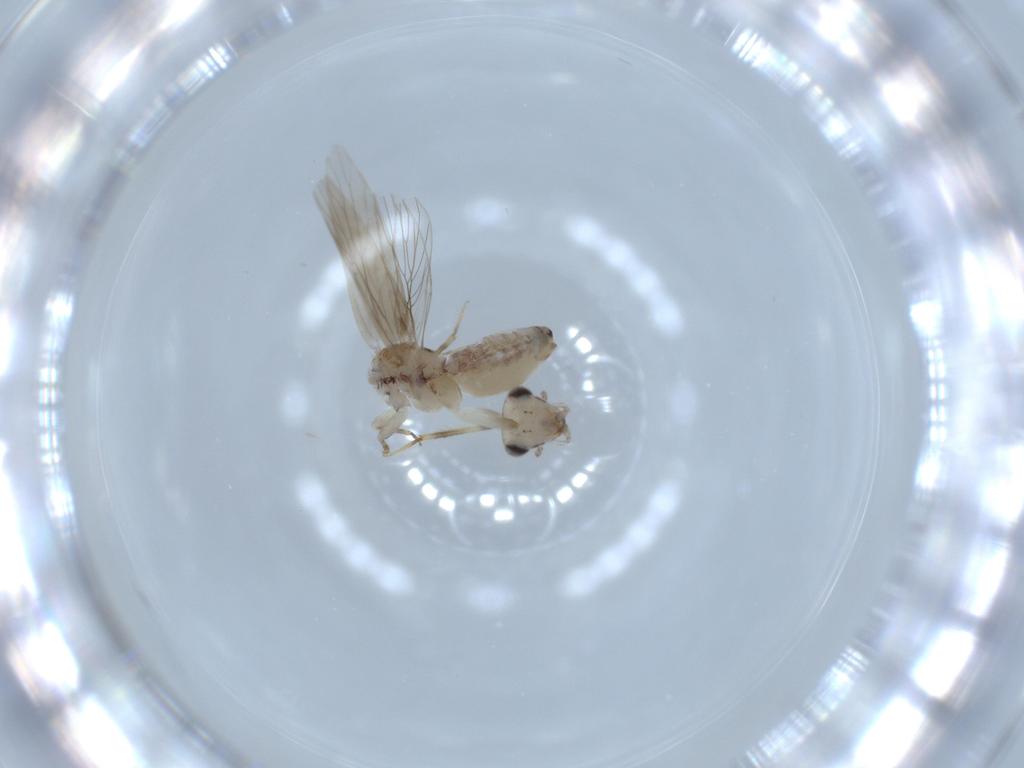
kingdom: Animalia
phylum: Arthropoda
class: Insecta
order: Psocodea
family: Lepidopsocidae
